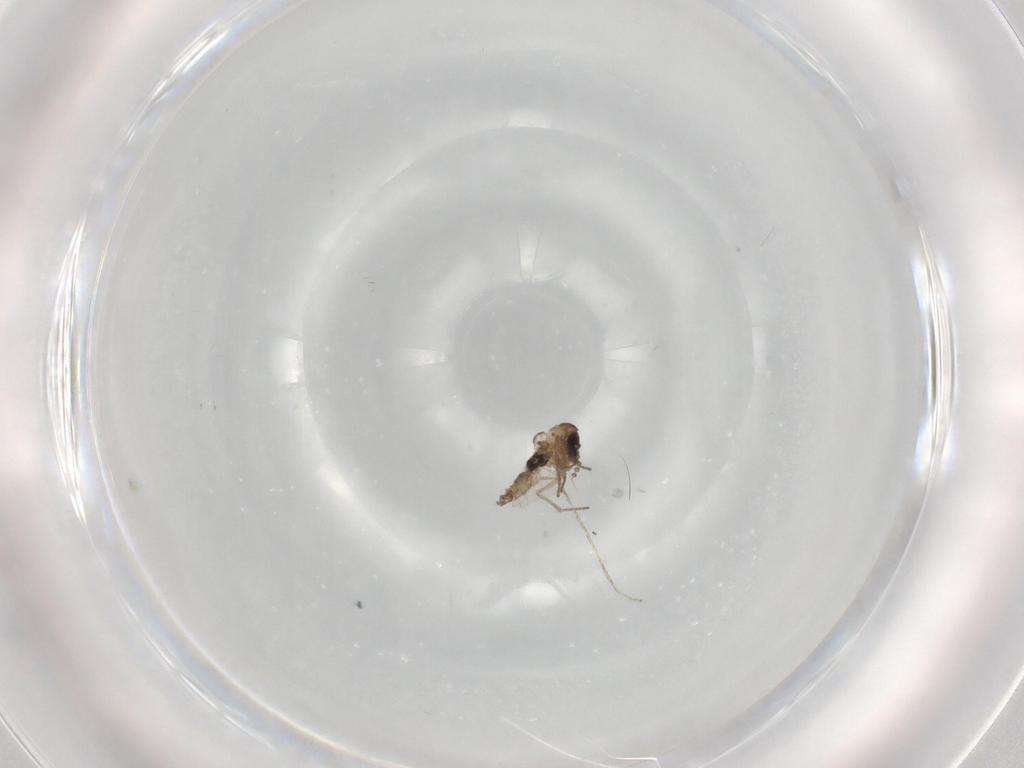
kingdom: Animalia
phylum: Arthropoda
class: Insecta
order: Diptera
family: Psychodidae
